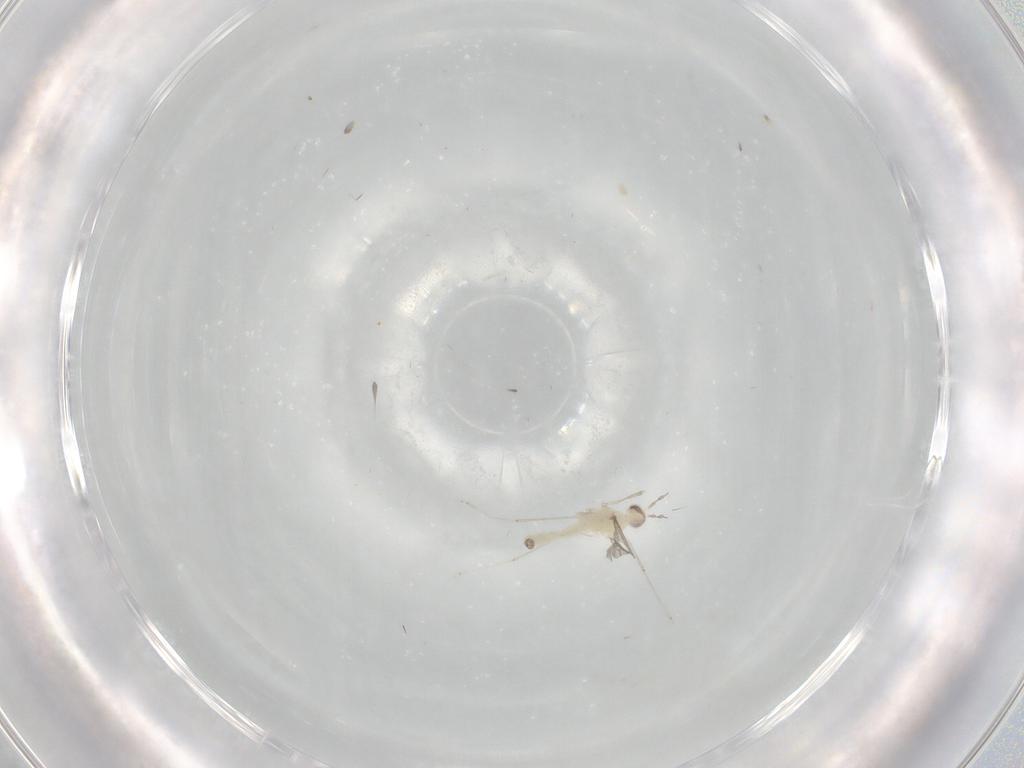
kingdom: Animalia
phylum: Arthropoda
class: Insecta
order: Diptera
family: Cecidomyiidae
